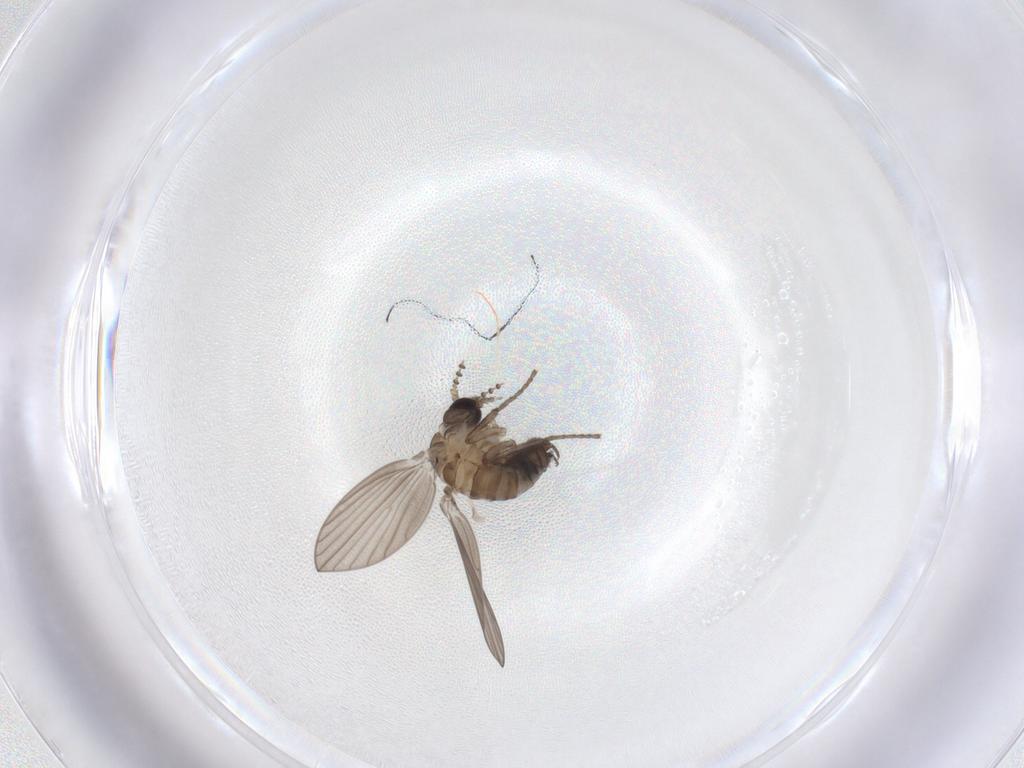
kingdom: Animalia
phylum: Arthropoda
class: Insecta
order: Diptera
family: Psychodidae
